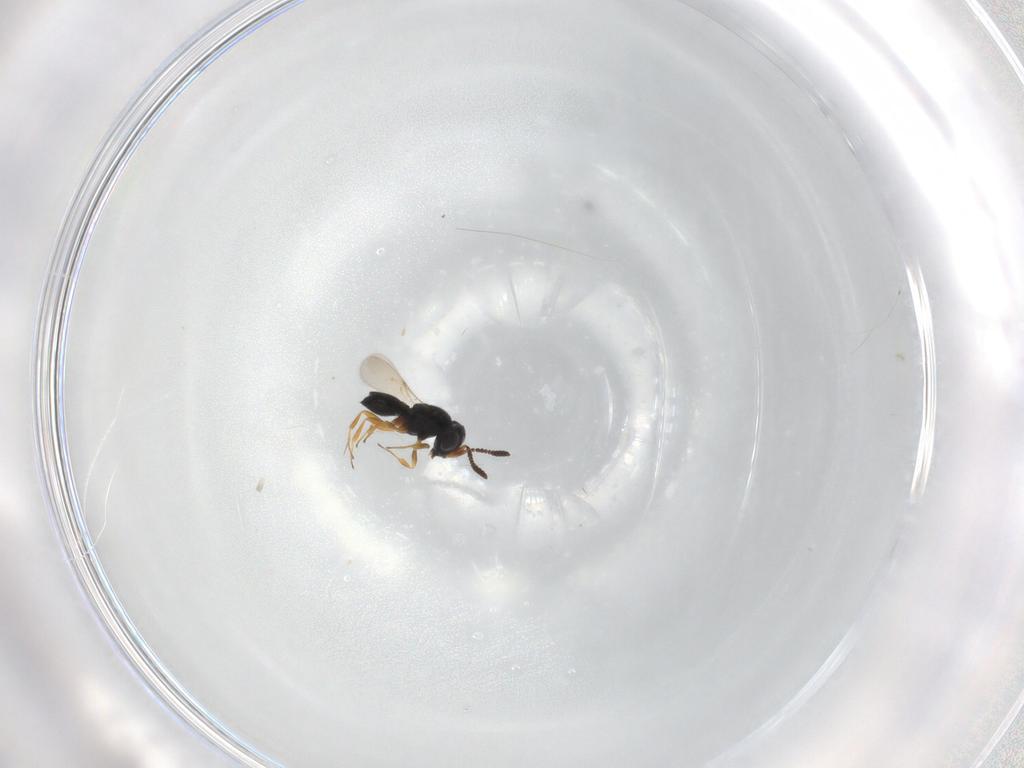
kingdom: Animalia
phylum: Arthropoda
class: Insecta
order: Hymenoptera
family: Scelionidae
